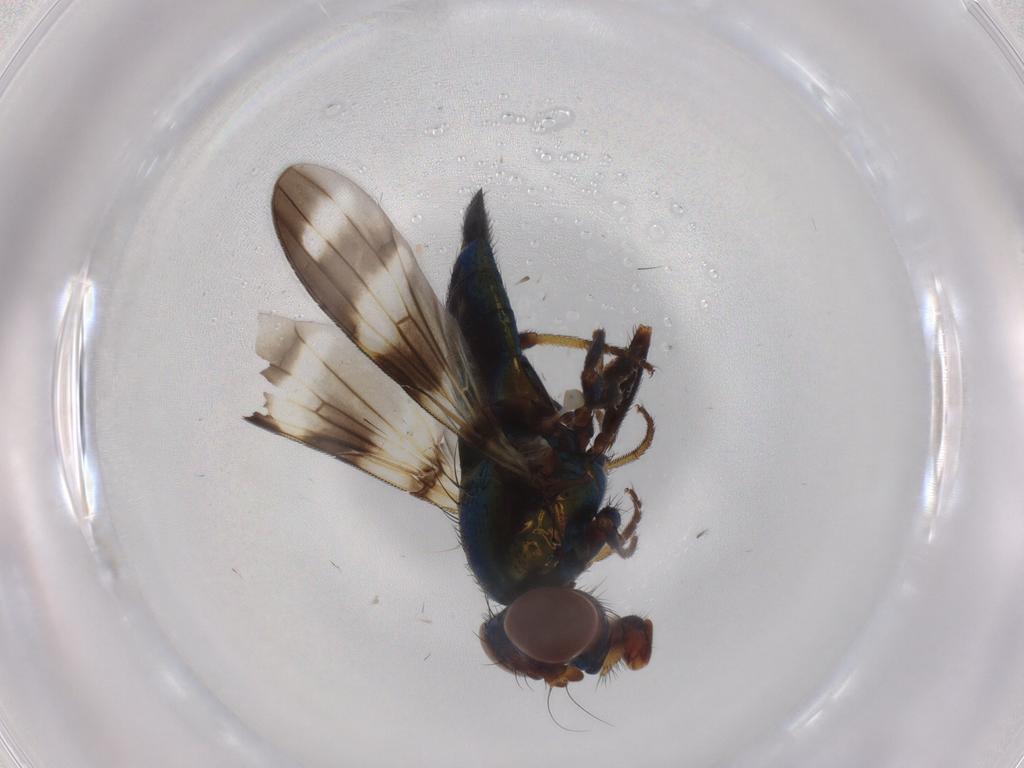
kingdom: Animalia
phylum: Arthropoda
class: Insecta
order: Diptera
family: Ulidiidae
